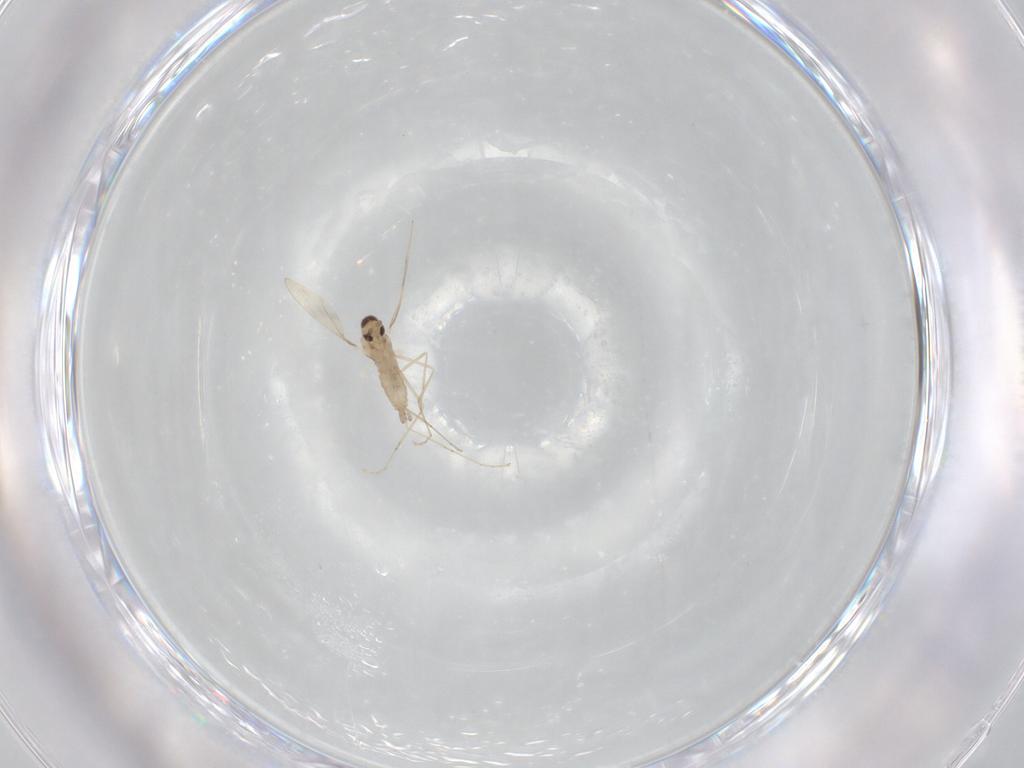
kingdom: Animalia
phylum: Arthropoda
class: Insecta
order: Diptera
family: Cecidomyiidae
